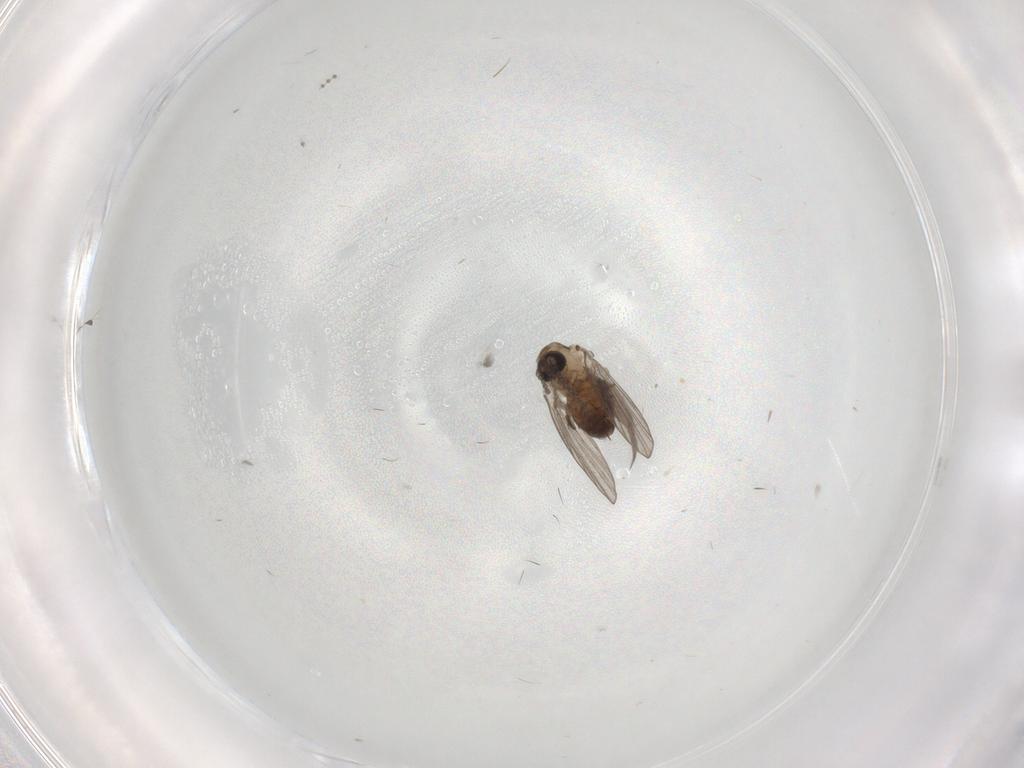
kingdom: Animalia
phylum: Arthropoda
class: Insecta
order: Diptera
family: Psychodidae
